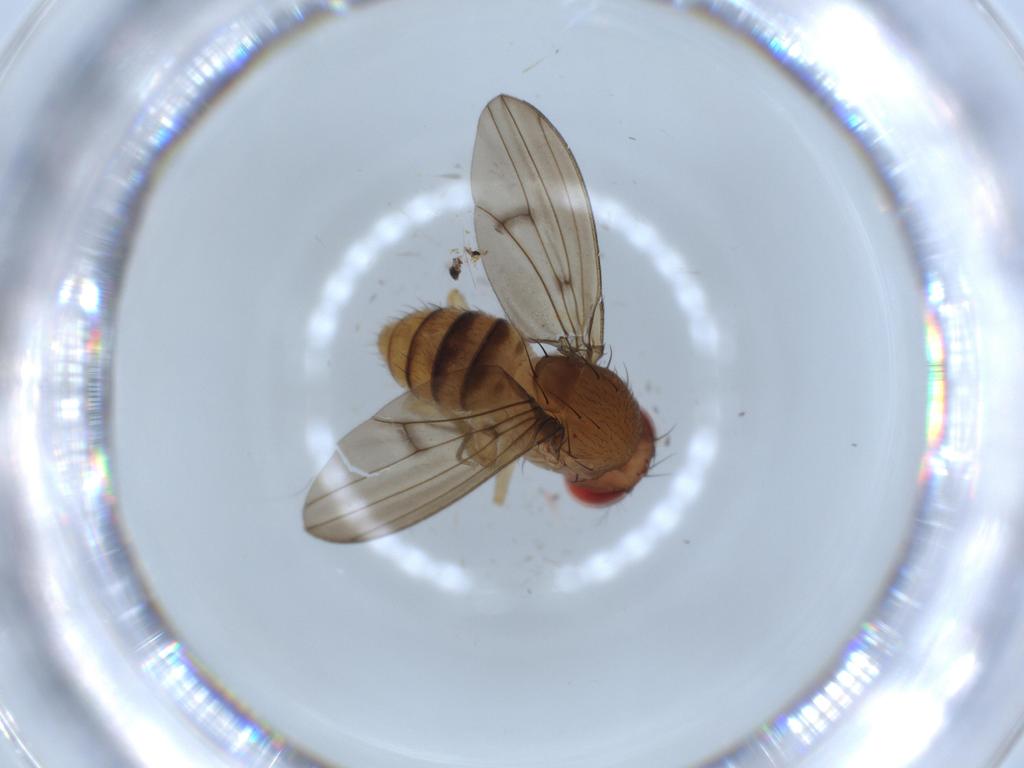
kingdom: Animalia
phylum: Arthropoda
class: Insecta
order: Diptera
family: Drosophilidae
